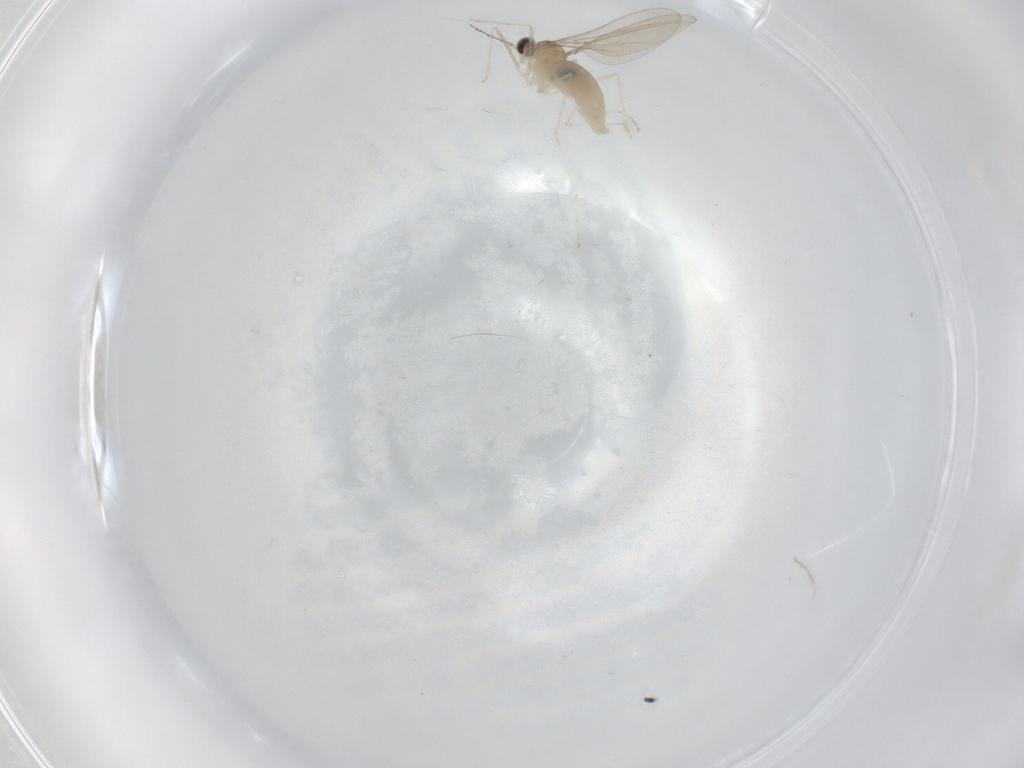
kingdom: Animalia
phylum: Arthropoda
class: Insecta
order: Diptera
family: Cecidomyiidae
